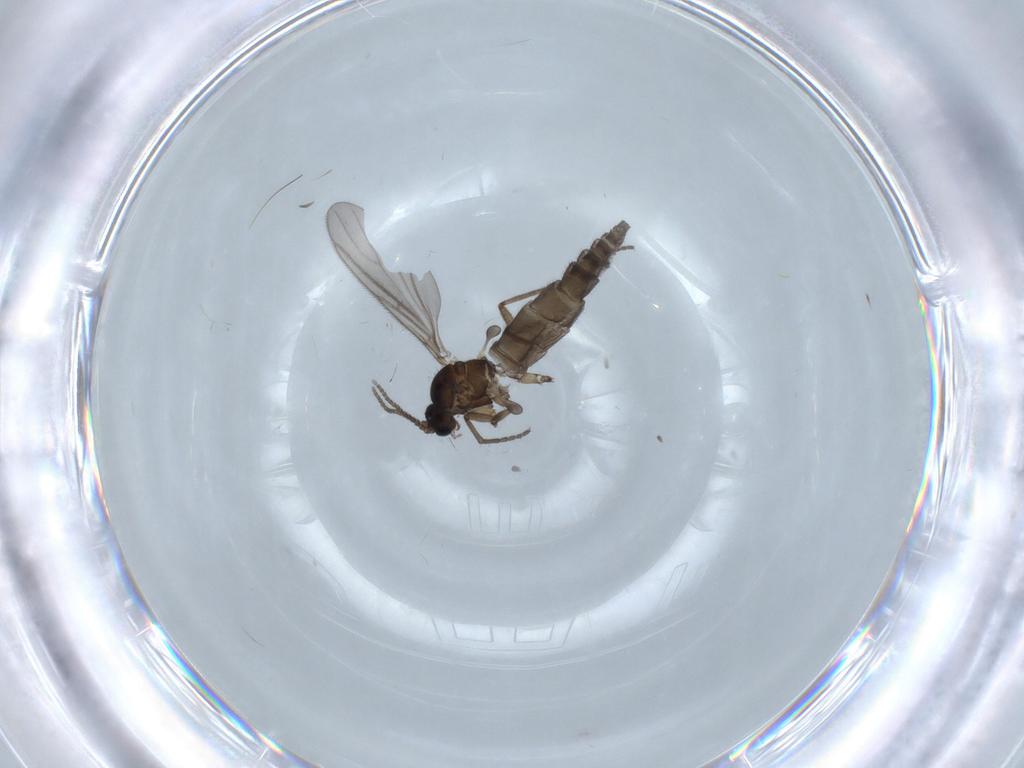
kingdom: Animalia
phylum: Arthropoda
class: Insecta
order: Diptera
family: Sciaridae
